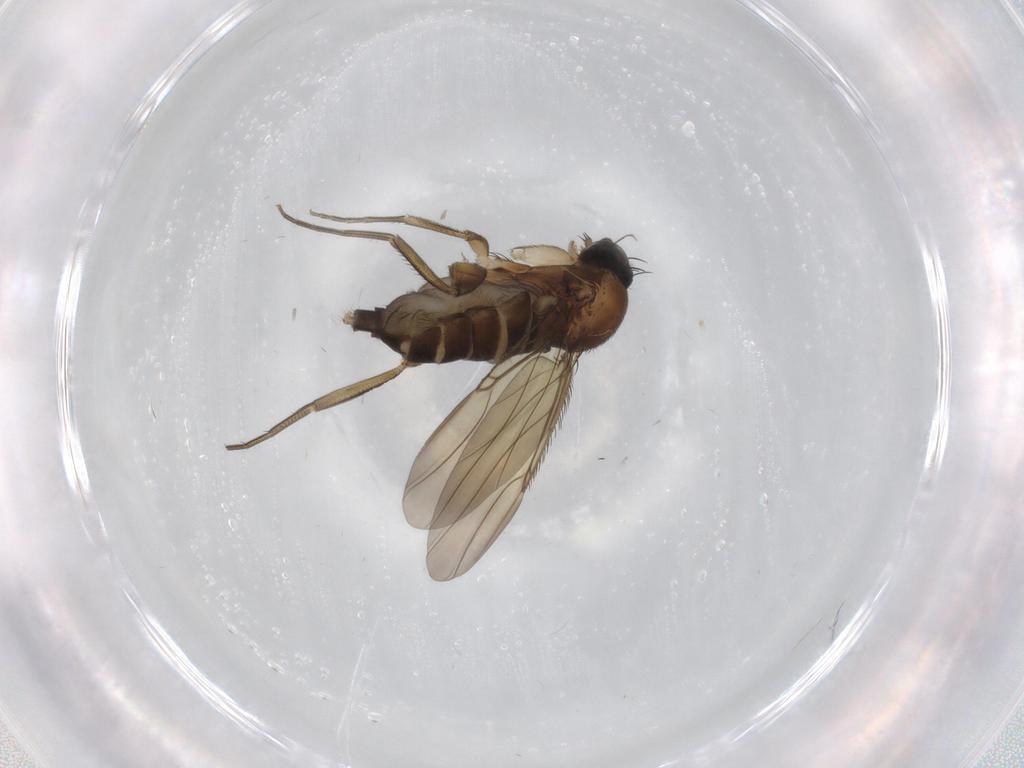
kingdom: Animalia
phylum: Arthropoda
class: Insecta
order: Diptera
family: Phoridae
